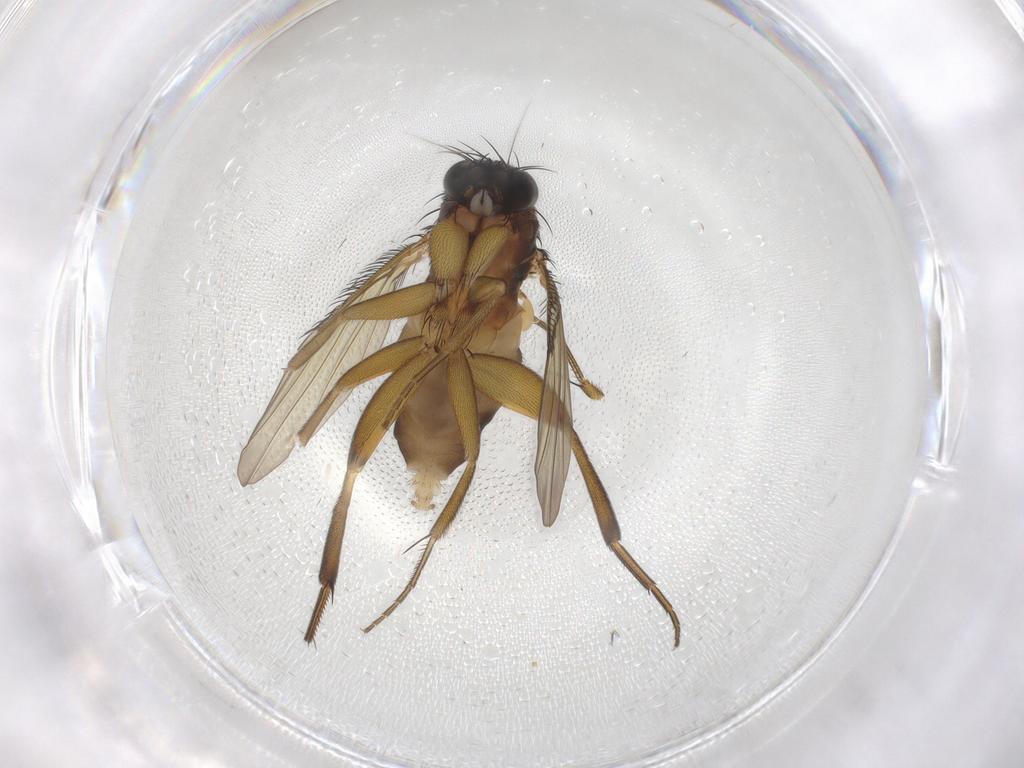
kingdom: Animalia
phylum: Arthropoda
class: Insecta
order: Diptera
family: Phoridae
